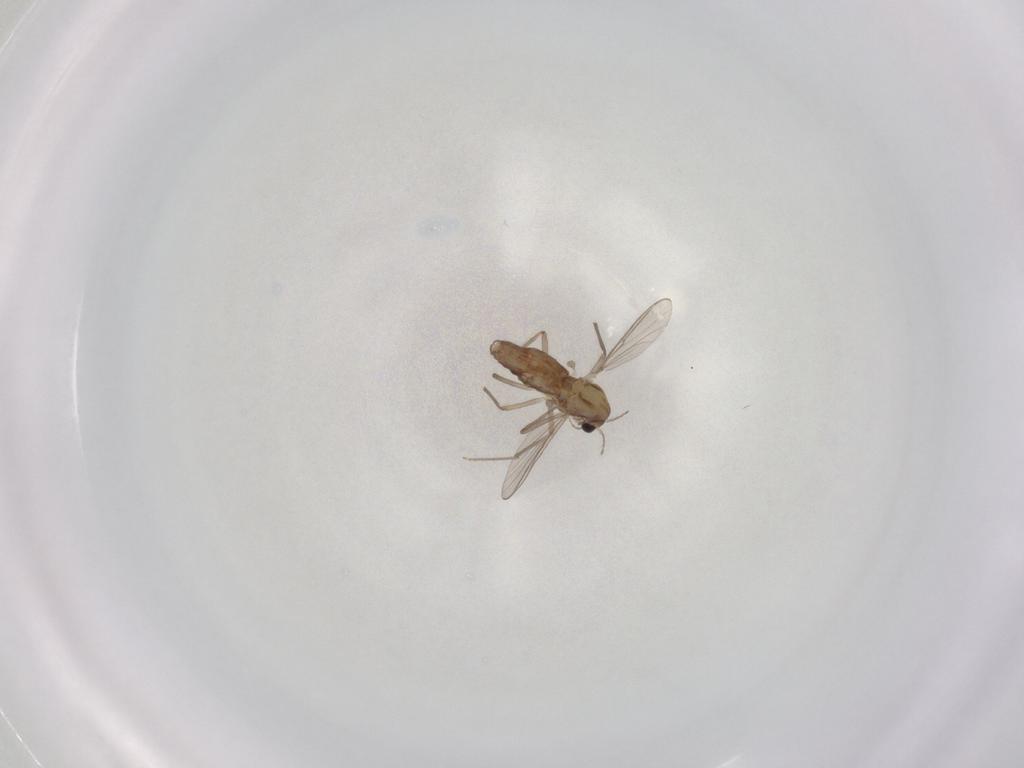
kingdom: Animalia
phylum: Arthropoda
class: Insecta
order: Diptera
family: Chironomidae
